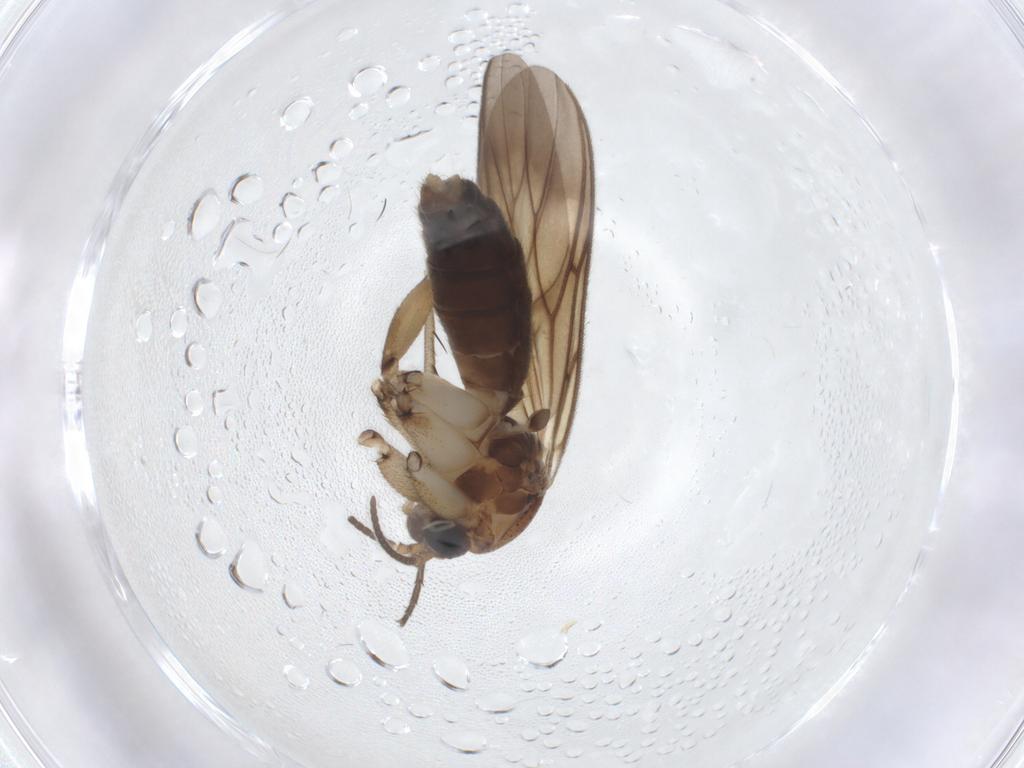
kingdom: Animalia
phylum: Arthropoda
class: Insecta
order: Diptera
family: Mycetophilidae
